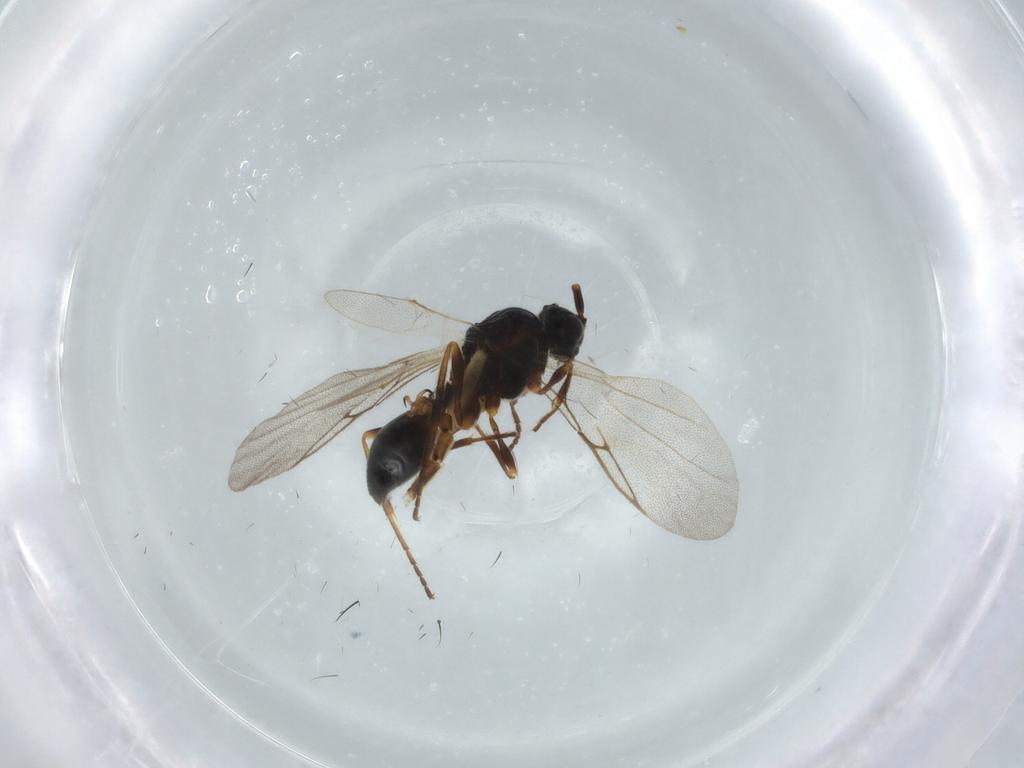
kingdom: Animalia
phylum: Arthropoda
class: Insecta
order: Hymenoptera
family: Diapriidae
